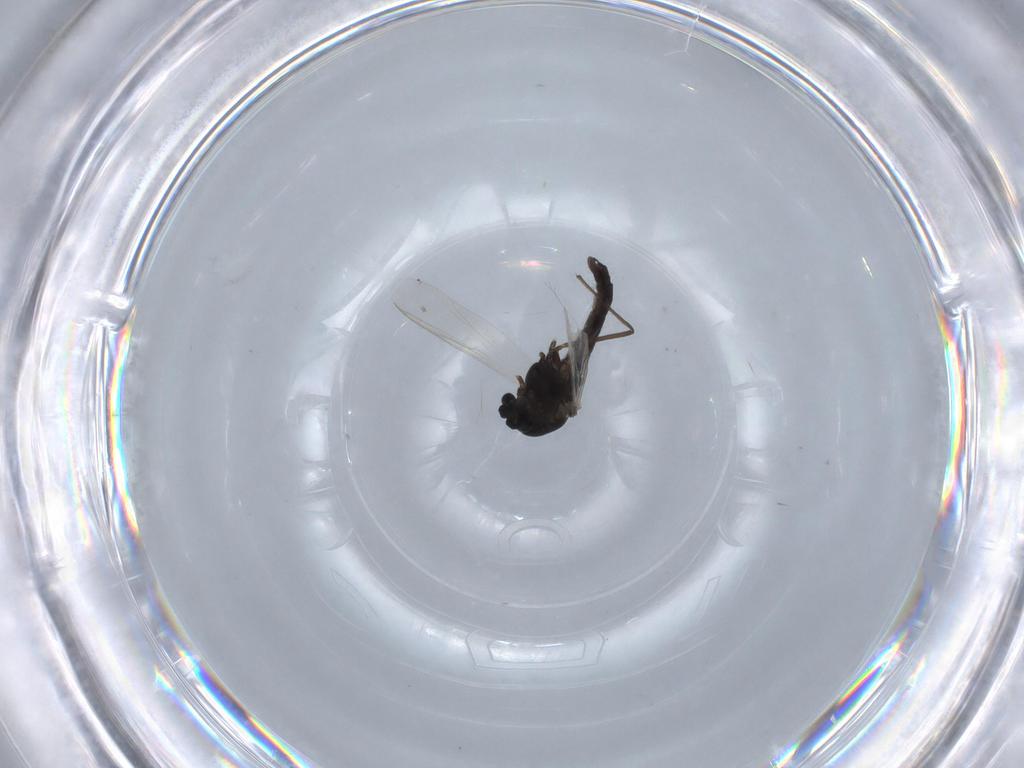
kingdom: Animalia
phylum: Arthropoda
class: Insecta
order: Diptera
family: Chironomidae
